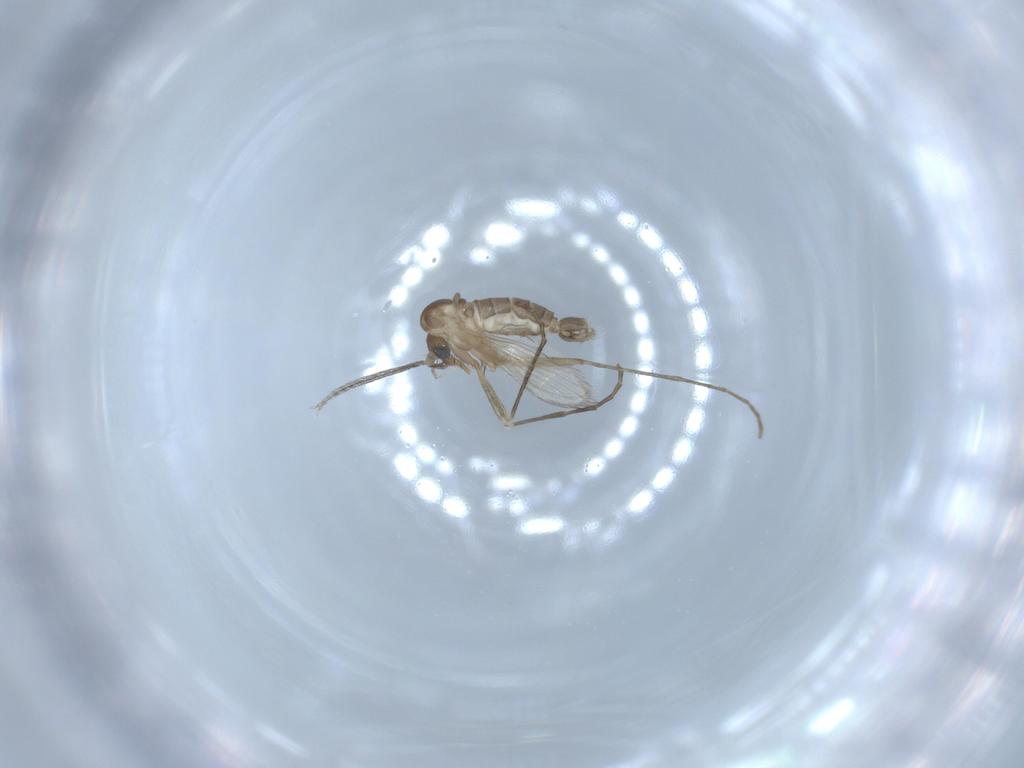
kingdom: Animalia
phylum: Arthropoda
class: Insecta
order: Diptera
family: Psychodidae
